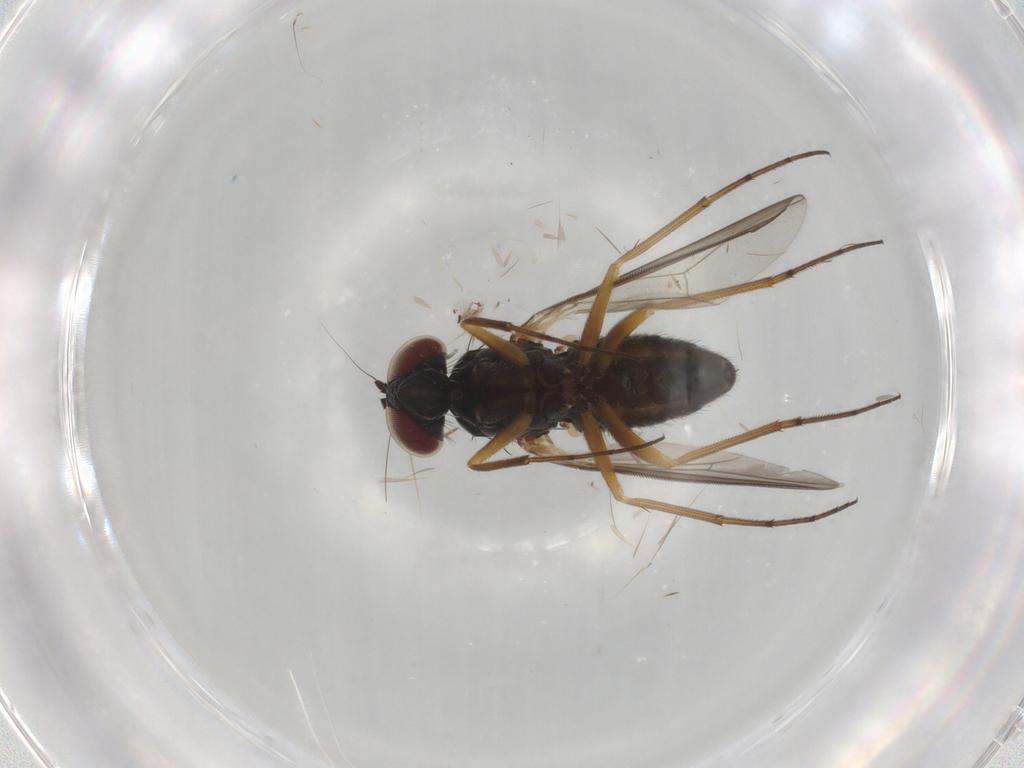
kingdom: Animalia
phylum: Arthropoda
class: Insecta
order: Diptera
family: Dolichopodidae
